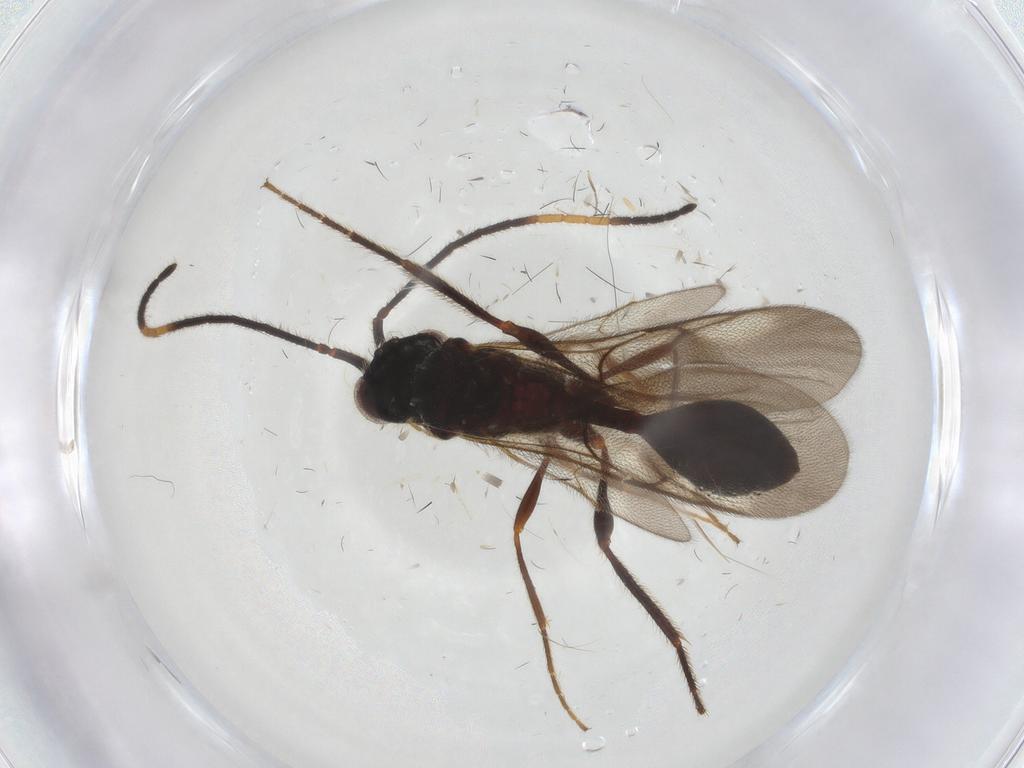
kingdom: Animalia
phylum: Arthropoda
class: Insecta
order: Hymenoptera
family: Diapriidae
